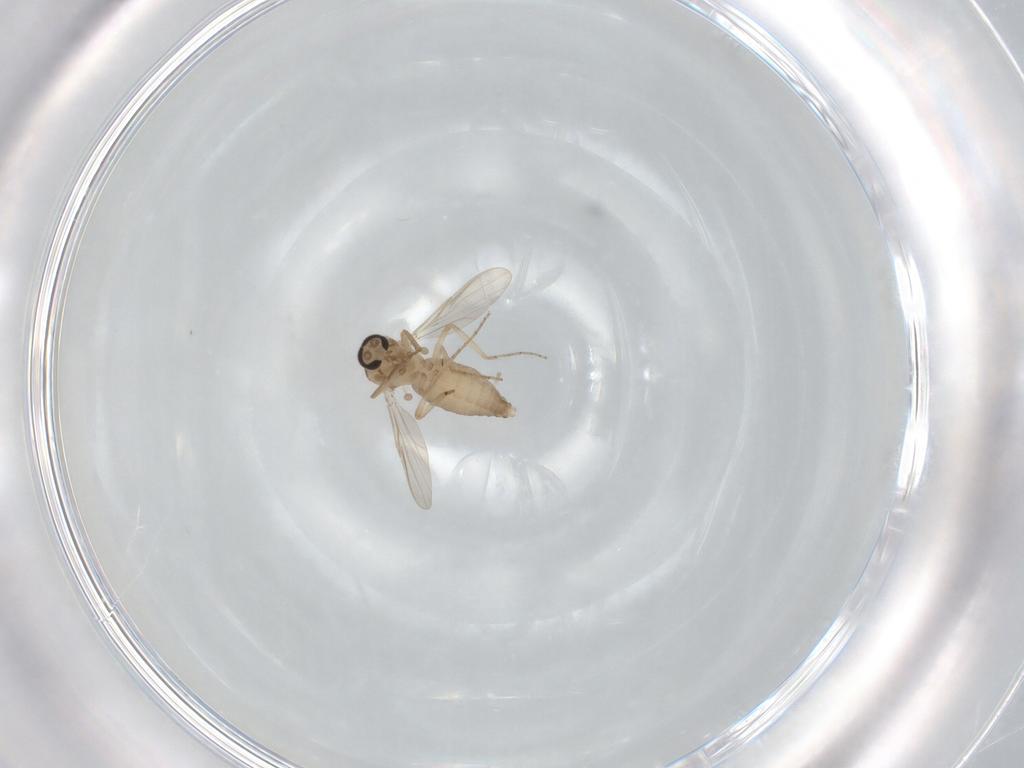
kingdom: Animalia
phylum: Arthropoda
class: Insecta
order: Diptera
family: Ceratopogonidae
